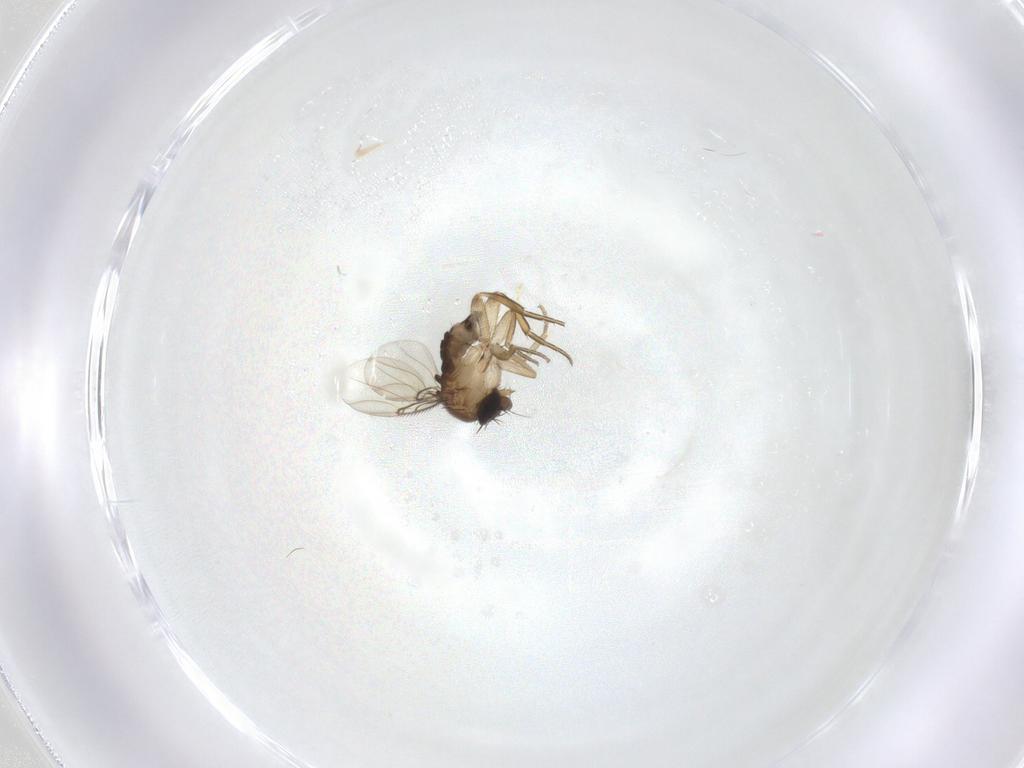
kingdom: Animalia
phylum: Arthropoda
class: Insecta
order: Diptera
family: Phoridae
